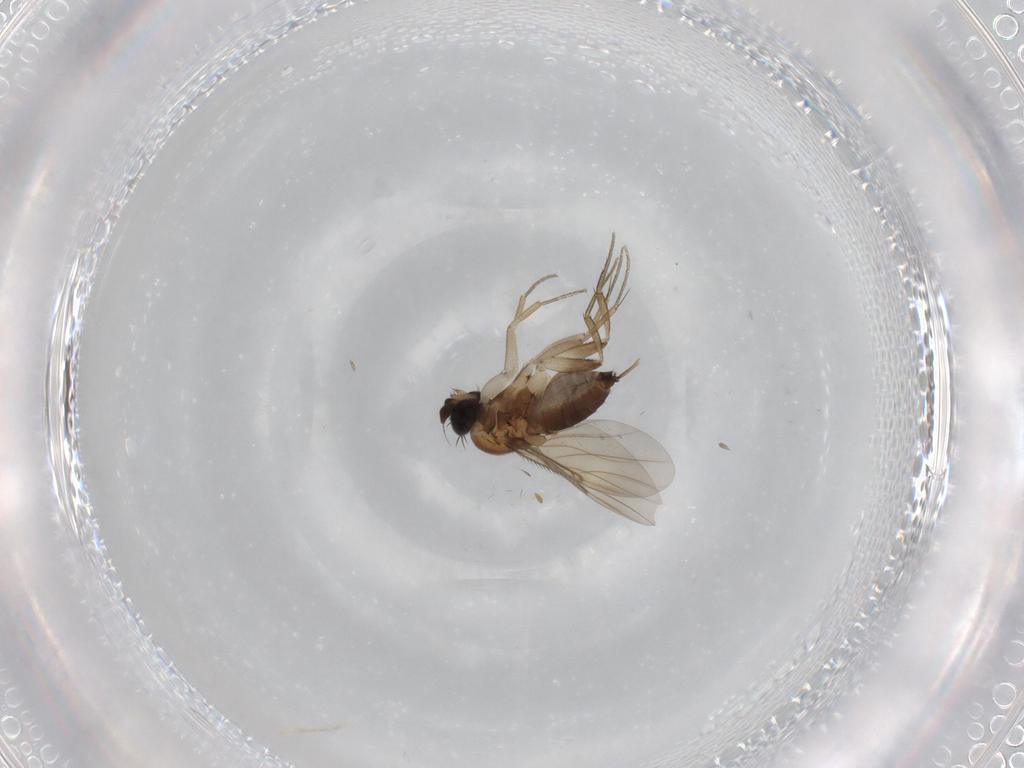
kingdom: Animalia
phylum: Arthropoda
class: Insecta
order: Diptera
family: Phoridae
